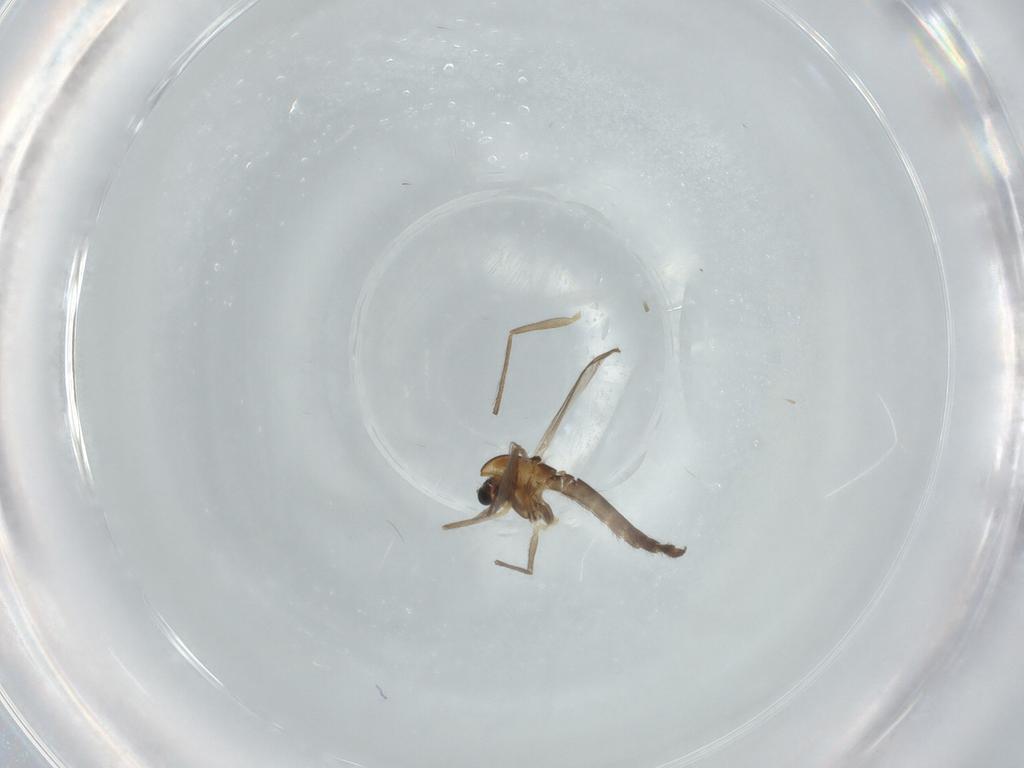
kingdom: Animalia
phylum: Arthropoda
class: Insecta
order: Diptera
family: Chironomidae
